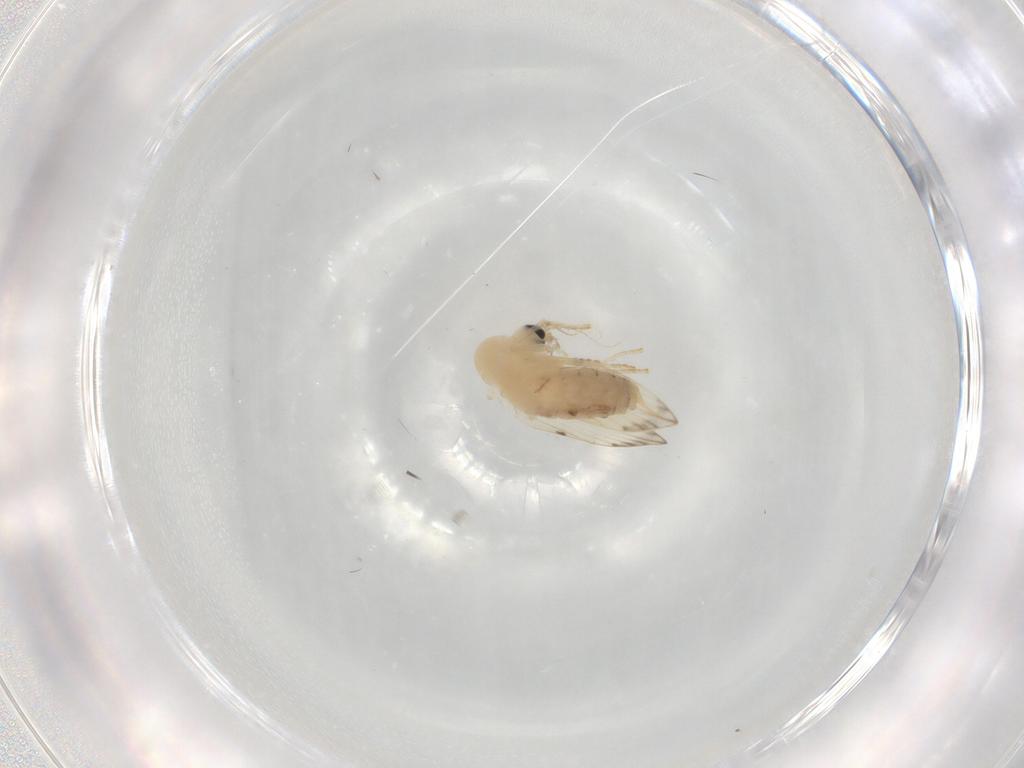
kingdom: Animalia
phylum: Arthropoda
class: Insecta
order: Diptera
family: Psychodidae
